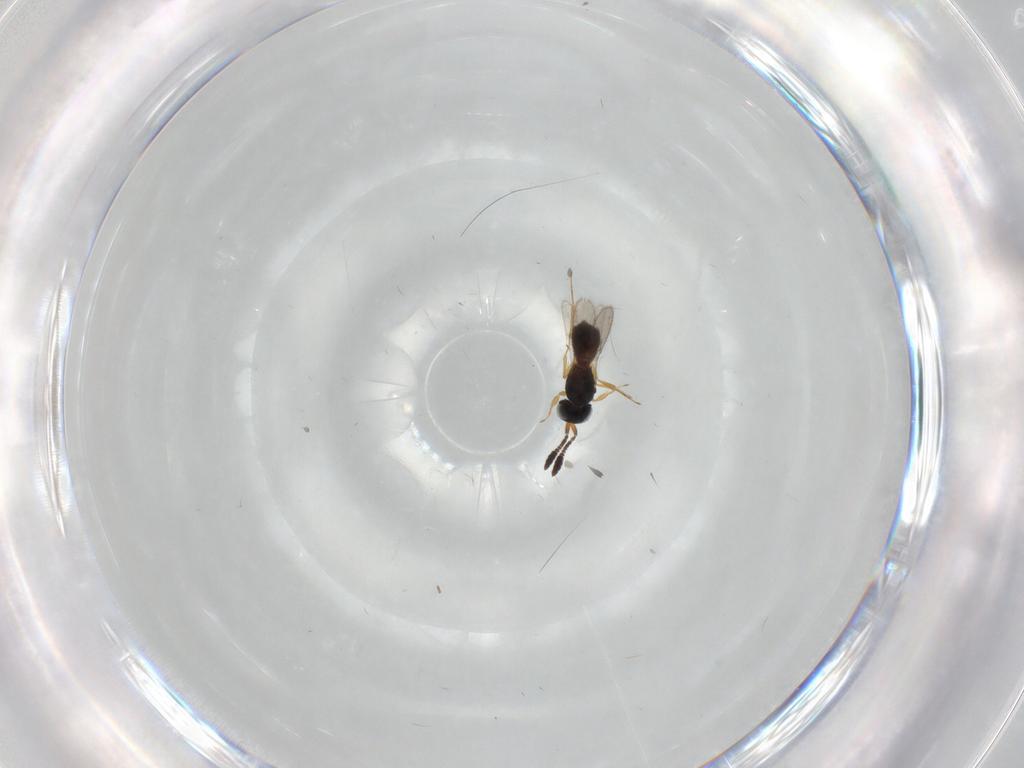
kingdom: Animalia
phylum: Arthropoda
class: Insecta
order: Hymenoptera
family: Scelionidae
